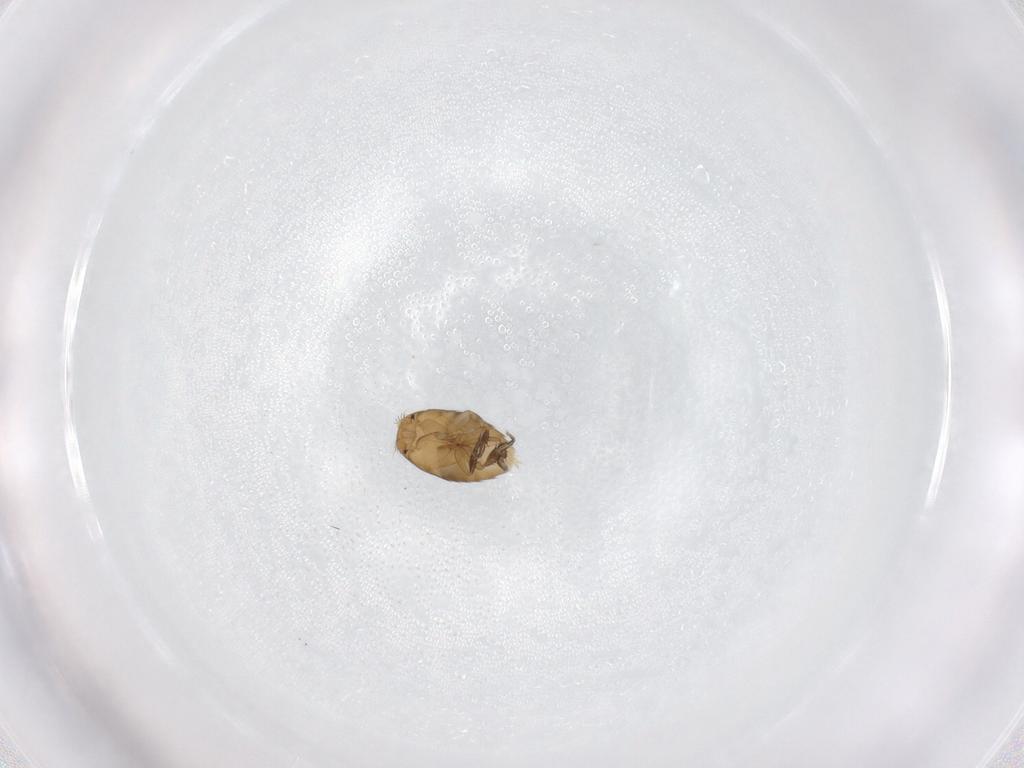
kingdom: Animalia
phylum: Arthropoda
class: Insecta
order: Diptera
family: Phoridae
